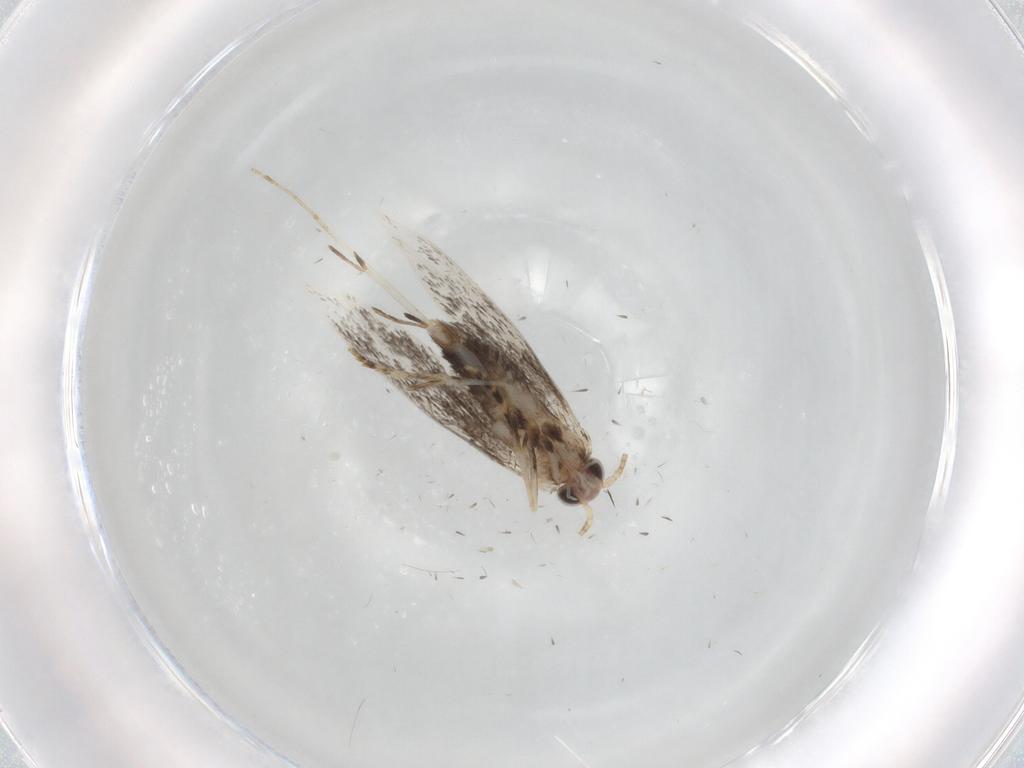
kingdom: Animalia
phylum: Arthropoda
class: Insecta
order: Lepidoptera
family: Tineidae
